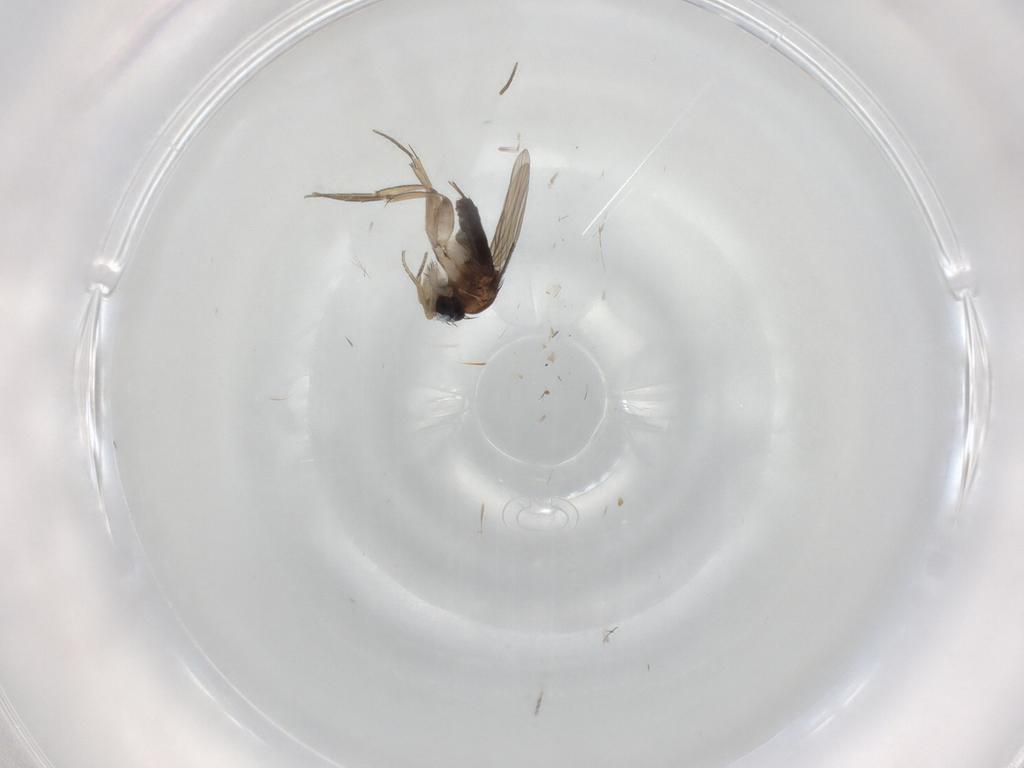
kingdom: Animalia
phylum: Arthropoda
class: Insecta
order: Diptera
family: Phoridae
